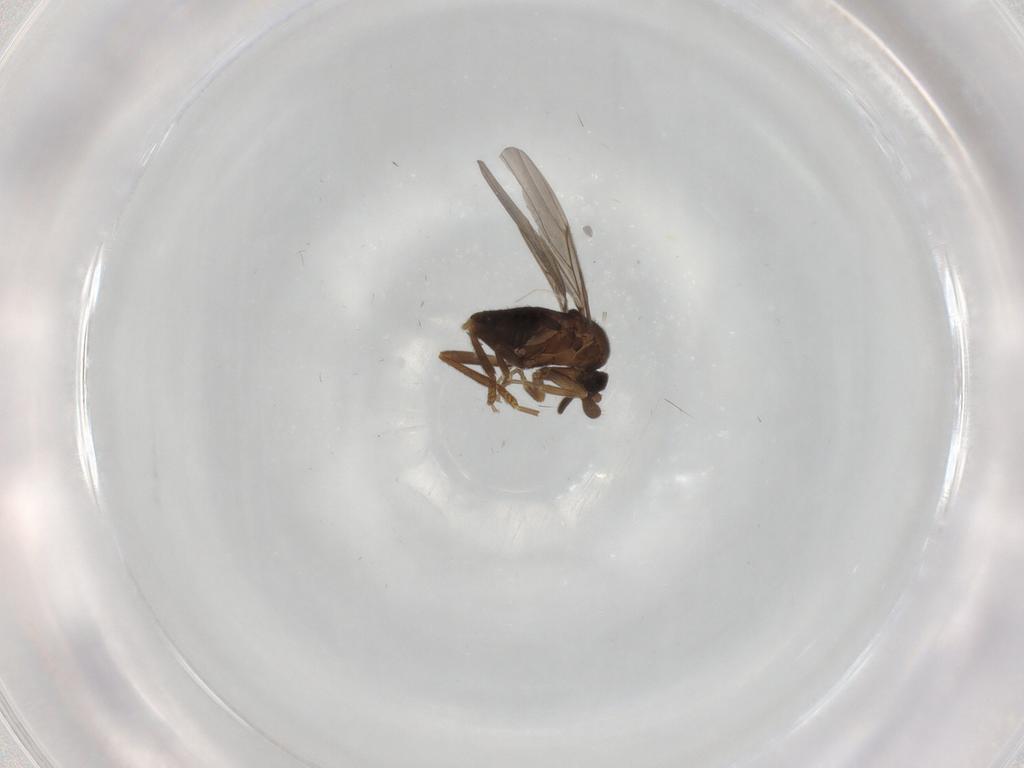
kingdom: Animalia
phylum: Arthropoda
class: Insecta
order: Diptera
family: Phoridae
